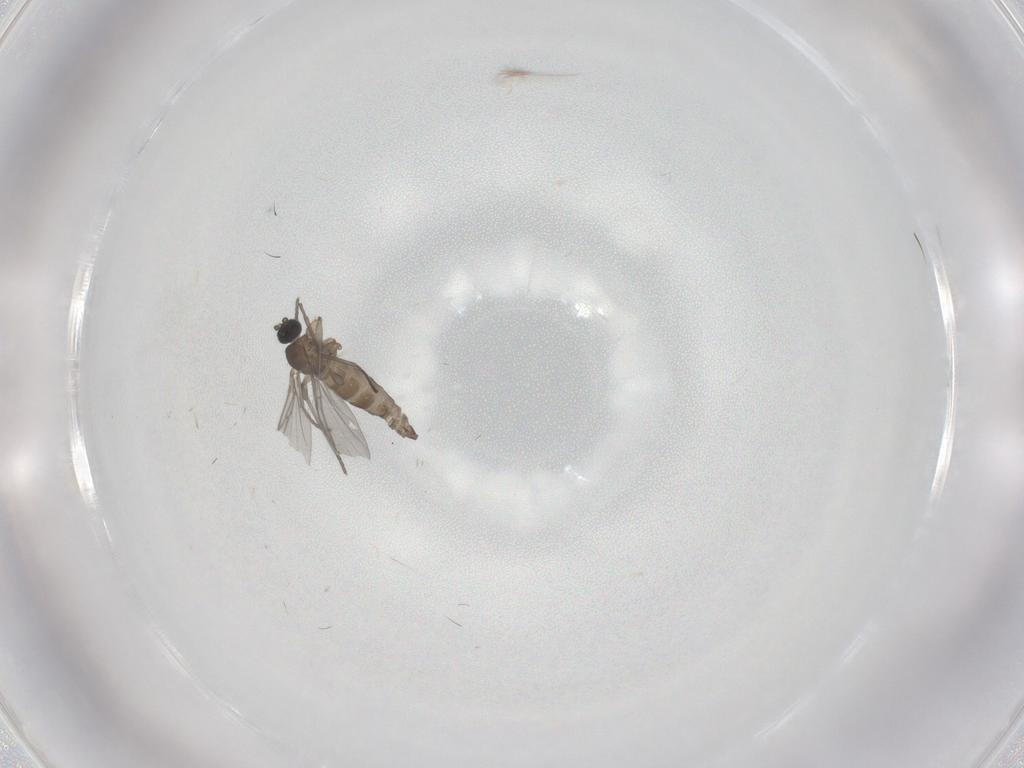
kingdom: Animalia
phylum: Arthropoda
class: Insecta
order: Diptera
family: Sciaridae
